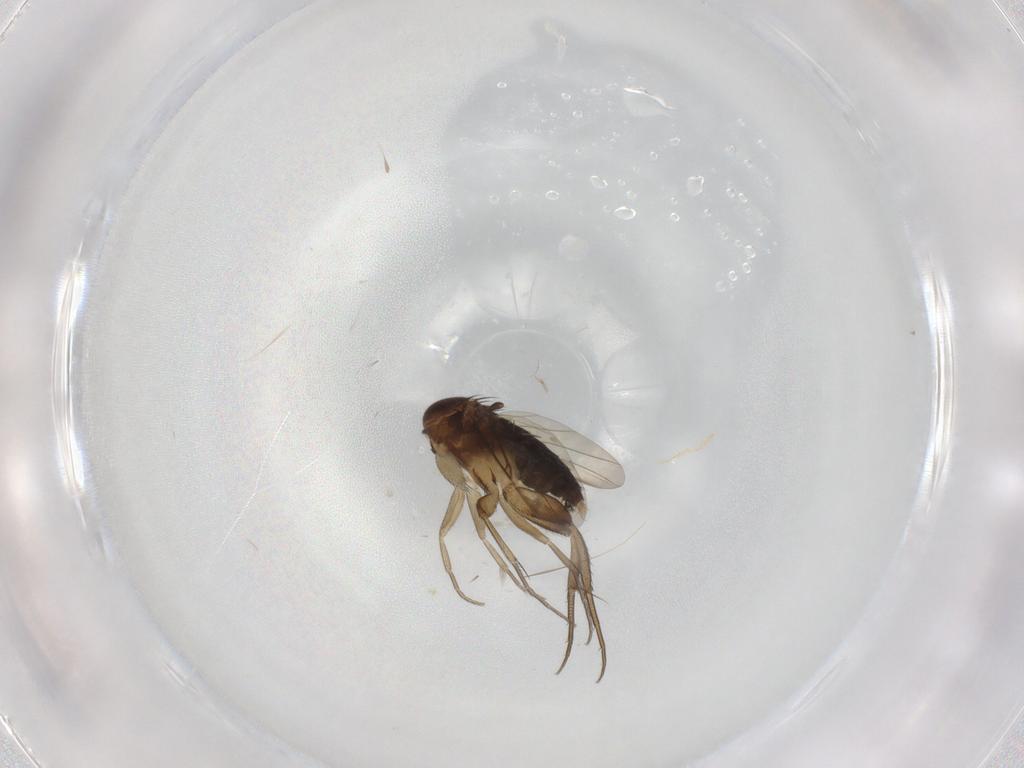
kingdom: Animalia
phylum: Arthropoda
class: Insecta
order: Diptera
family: Phoridae
